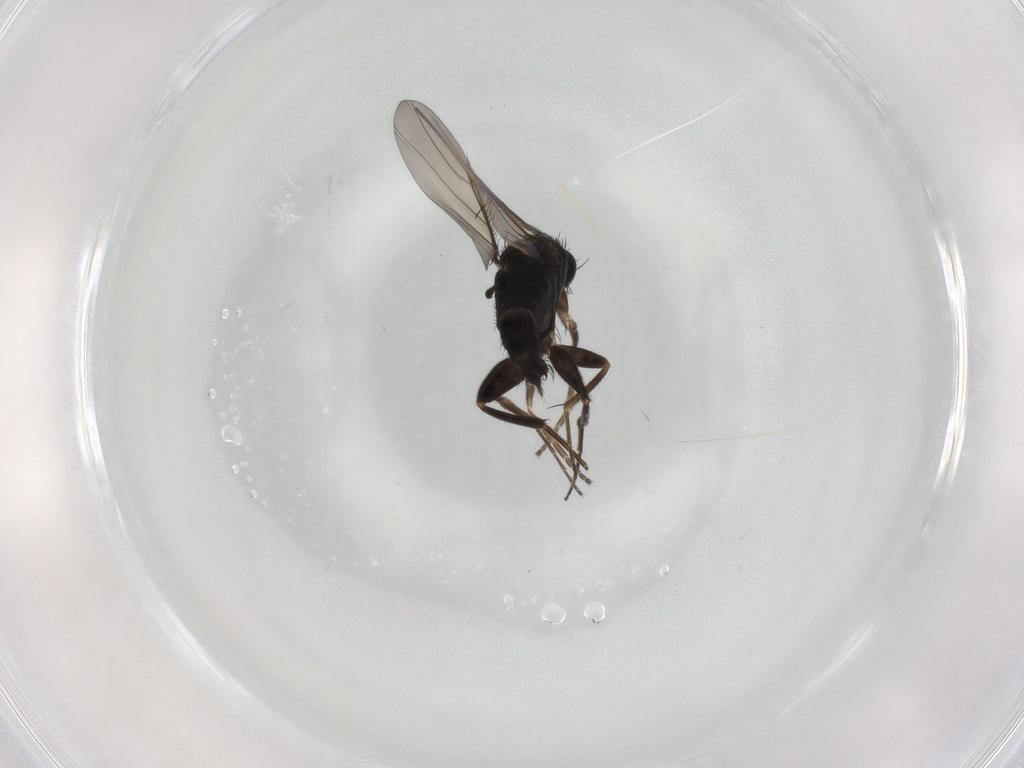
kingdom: Animalia
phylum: Arthropoda
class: Insecta
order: Diptera
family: Phoridae
